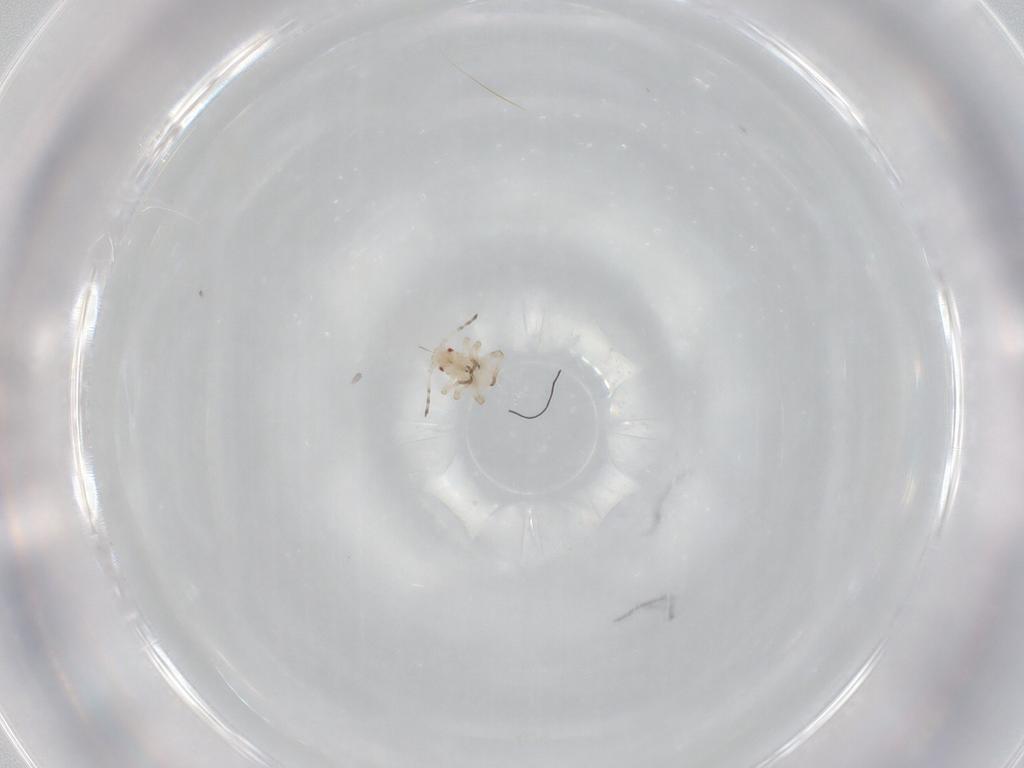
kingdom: Animalia
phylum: Arthropoda
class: Insecta
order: Hemiptera
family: Aphididae
